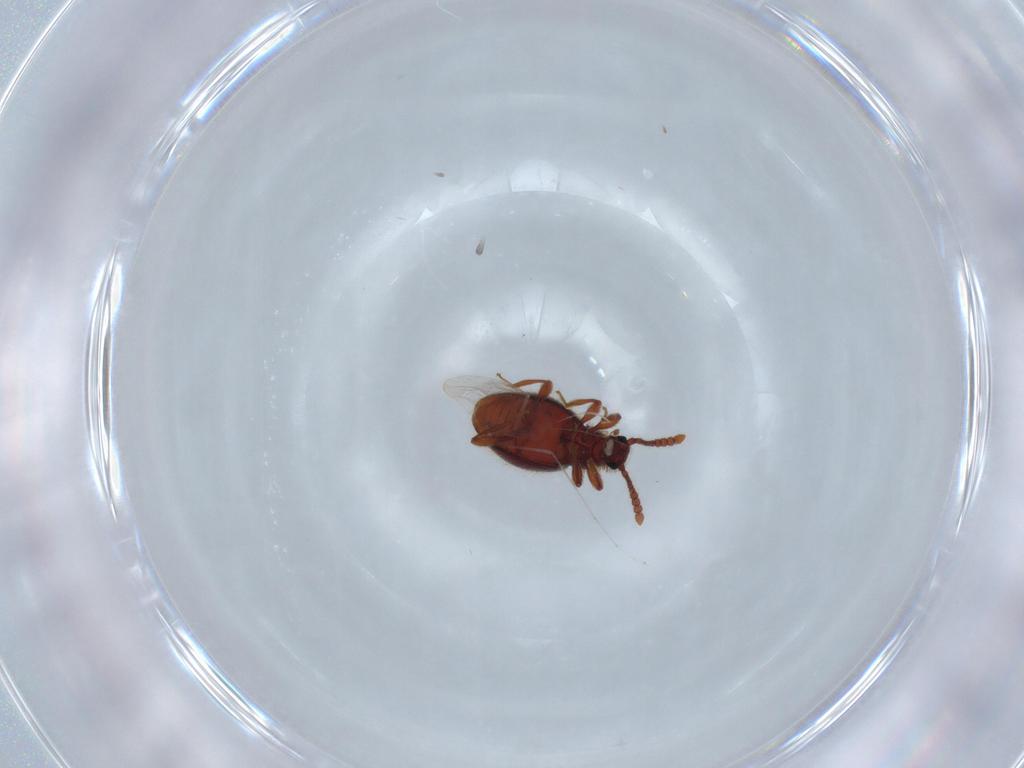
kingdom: Animalia
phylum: Arthropoda
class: Insecta
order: Coleoptera
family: Staphylinidae
